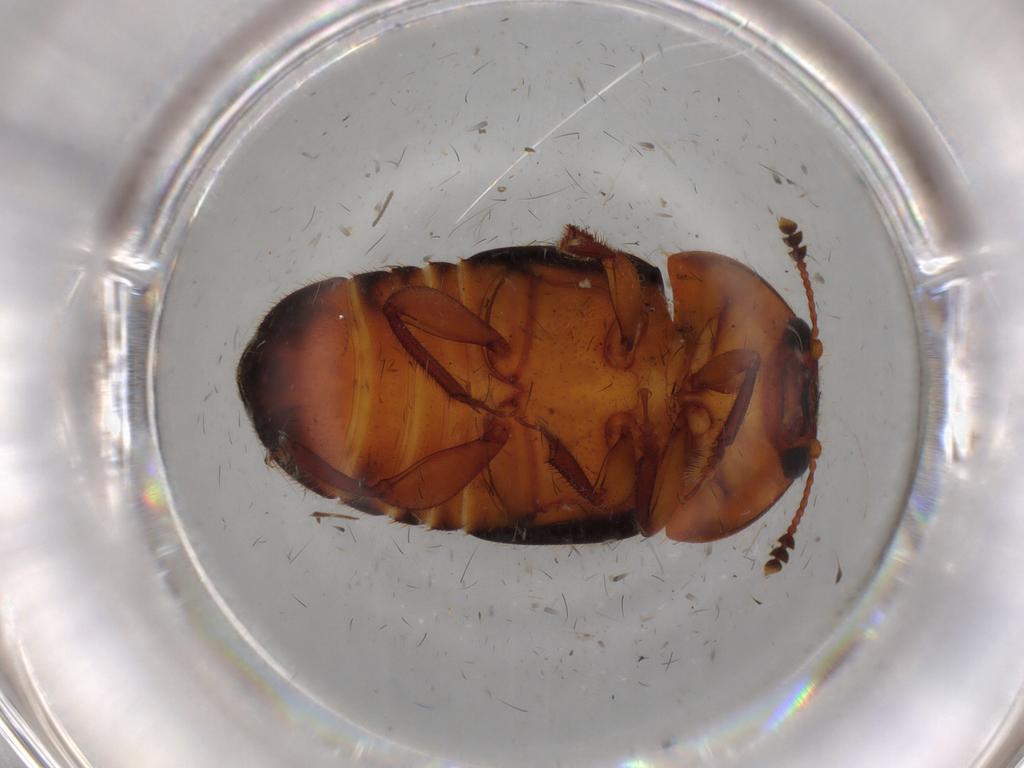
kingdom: Animalia
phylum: Arthropoda
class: Insecta
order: Coleoptera
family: Nitidulidae
